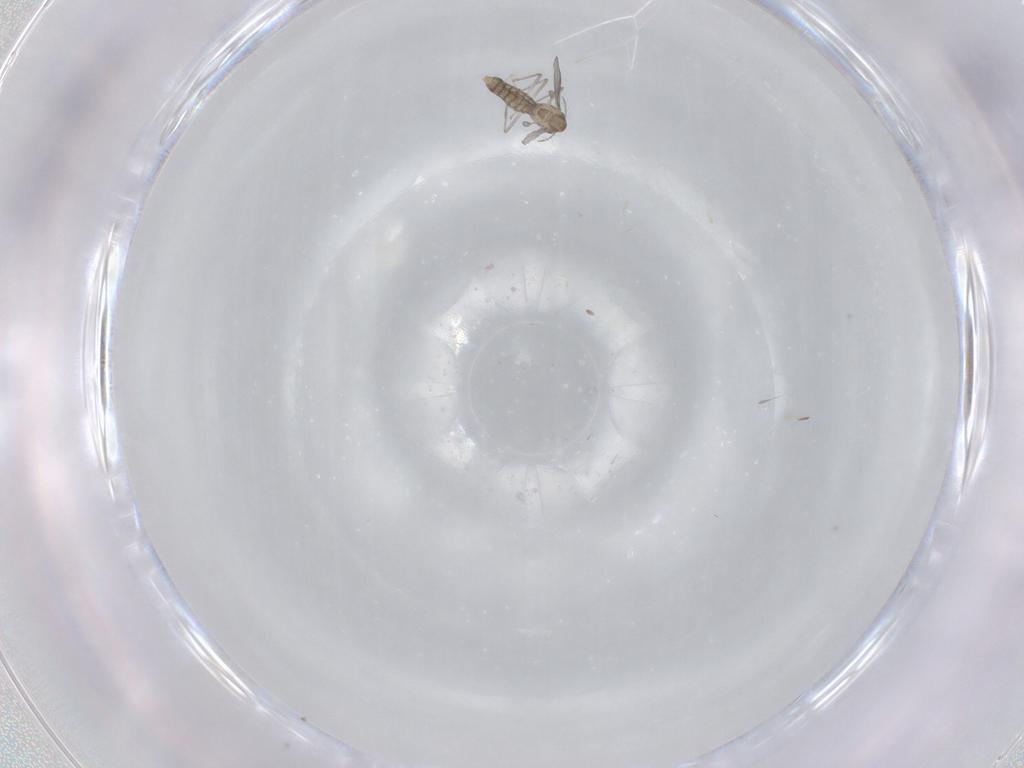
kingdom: Animalia
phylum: Arthropoda
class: Insecta
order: Diptera
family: Chironomidae
